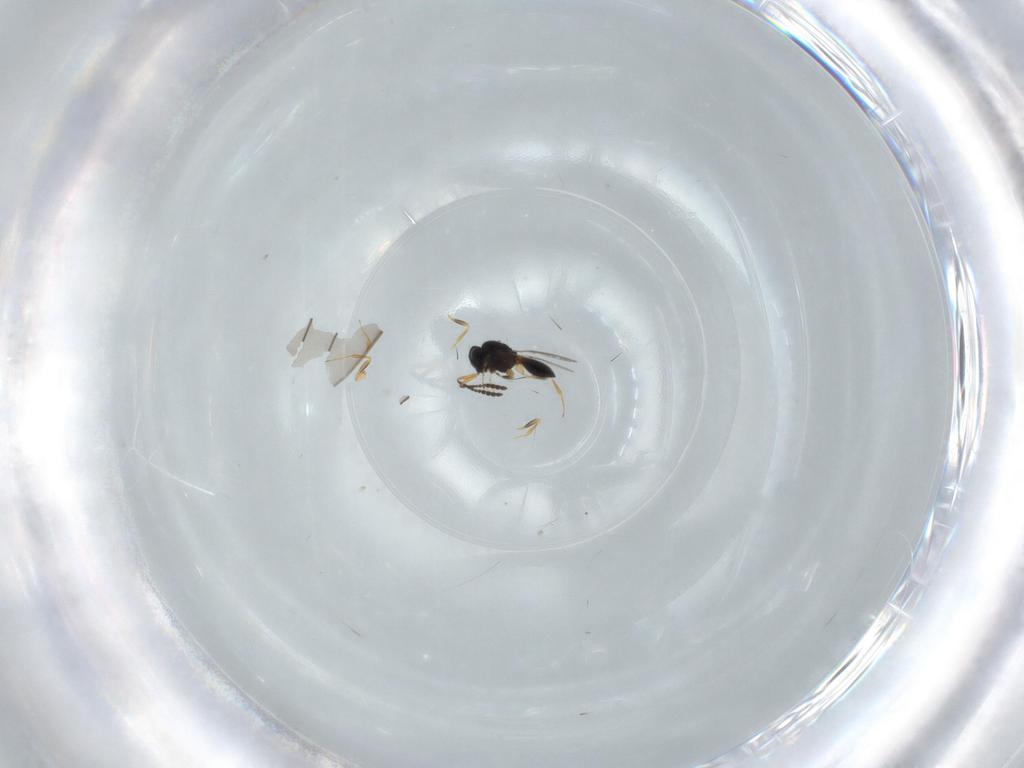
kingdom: Animalia
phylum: Arthropoda
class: Insecta
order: Hymenoptera
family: Scelionidae
